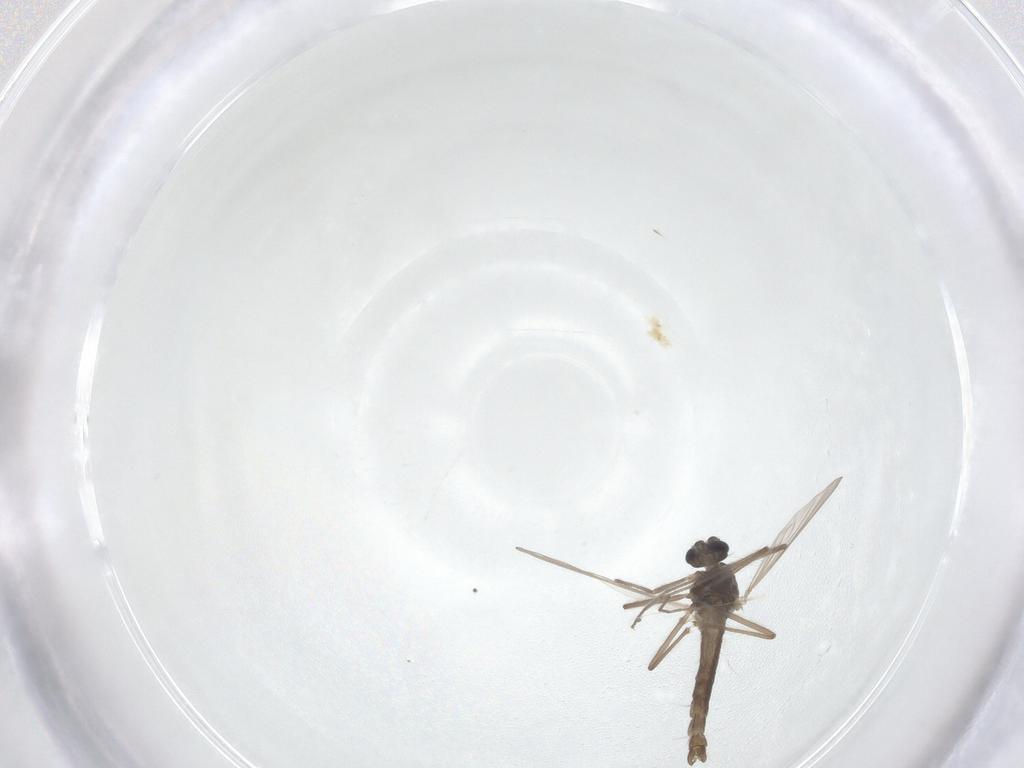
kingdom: Animalia
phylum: Arthropoda
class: Insecta
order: Diptera
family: Chironomidae
